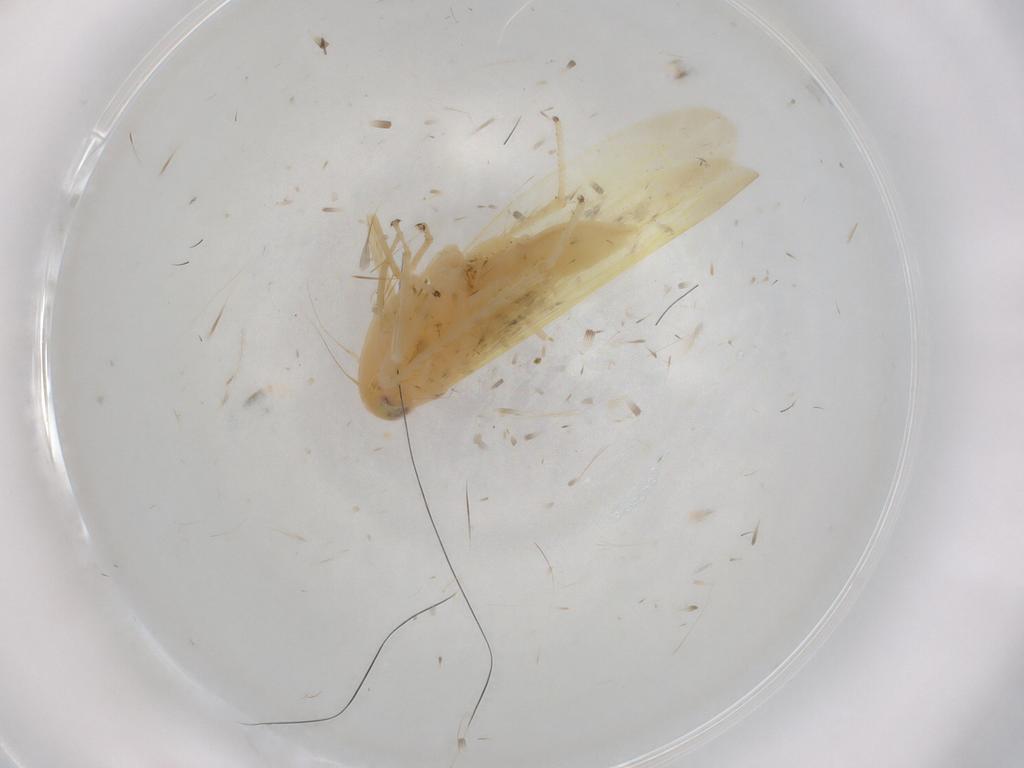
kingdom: Animalia
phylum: Arthropoda
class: Insecta
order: Hemiptera
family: Cicadellidae
